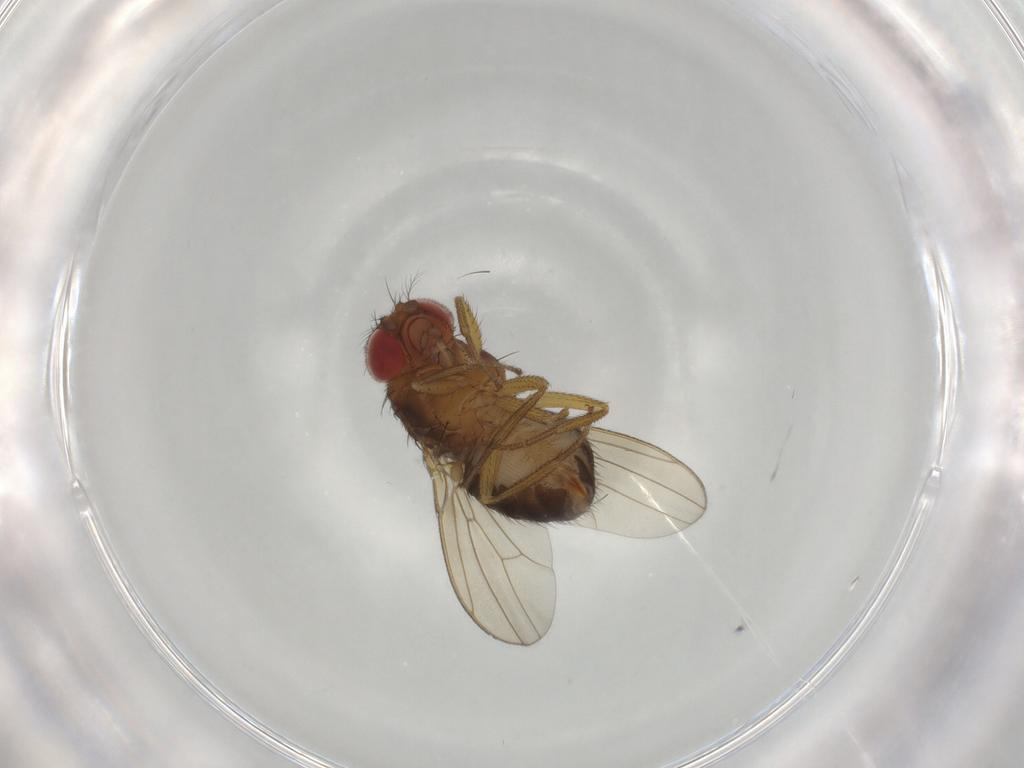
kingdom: Animalia
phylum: Arthropoda
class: Insecta
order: Diptera
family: Drosophilidae
